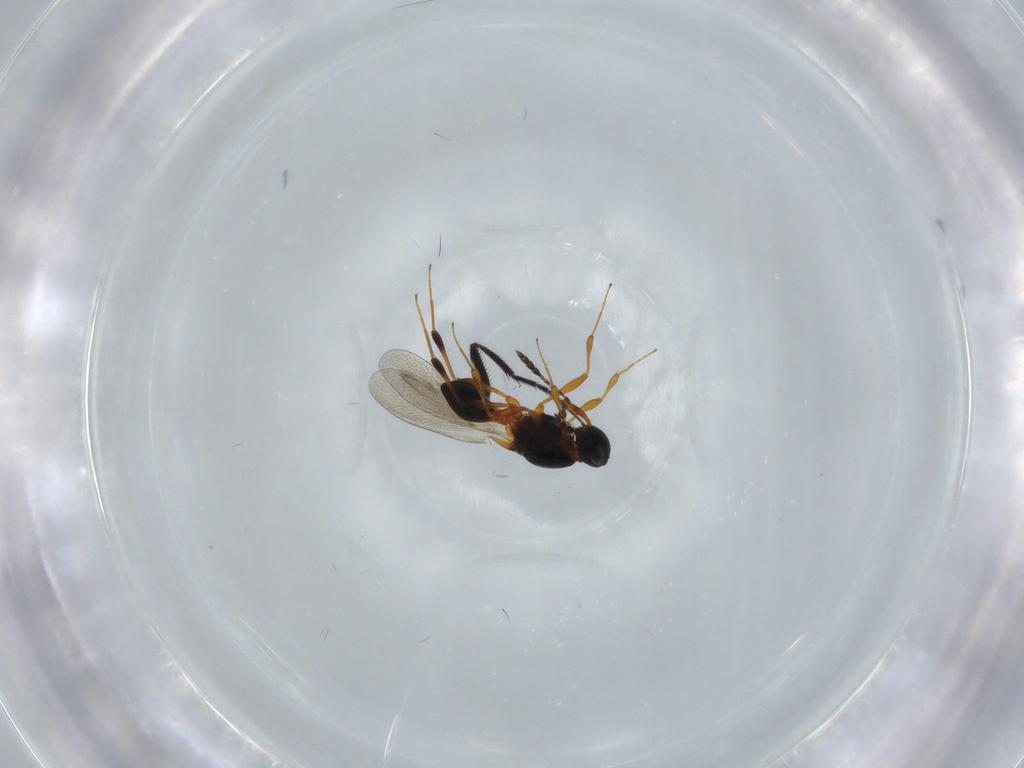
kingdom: Animalia
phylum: Arthropoda
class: Insecta
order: Hymenoptera
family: Platygastridae
